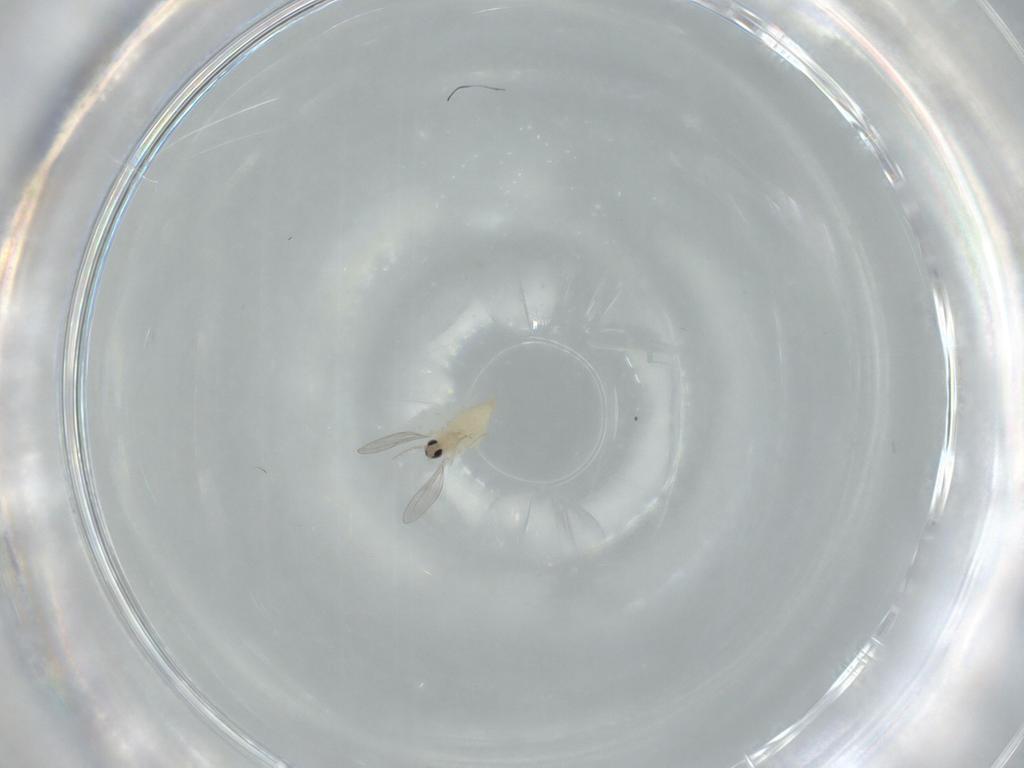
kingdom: Animalia
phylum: Arthropoda
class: Insecta
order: Diptera
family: Cecidomyiidae
